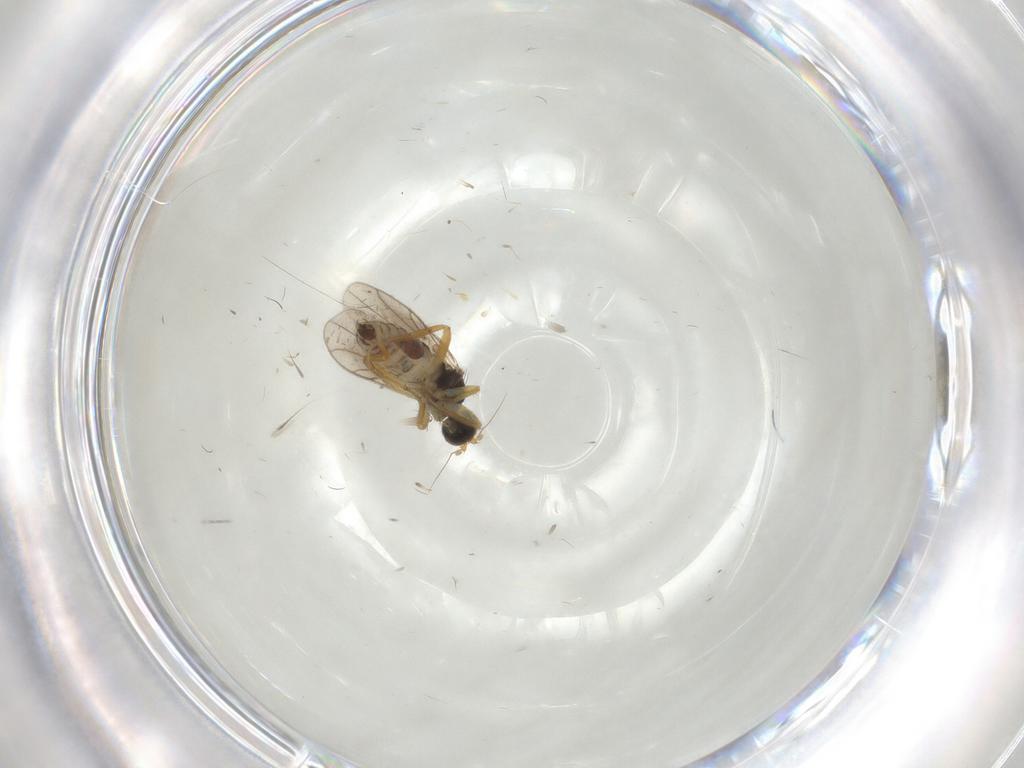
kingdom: Animalia
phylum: Arthropoda
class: Insecta
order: Diptera
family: Hybotidae
